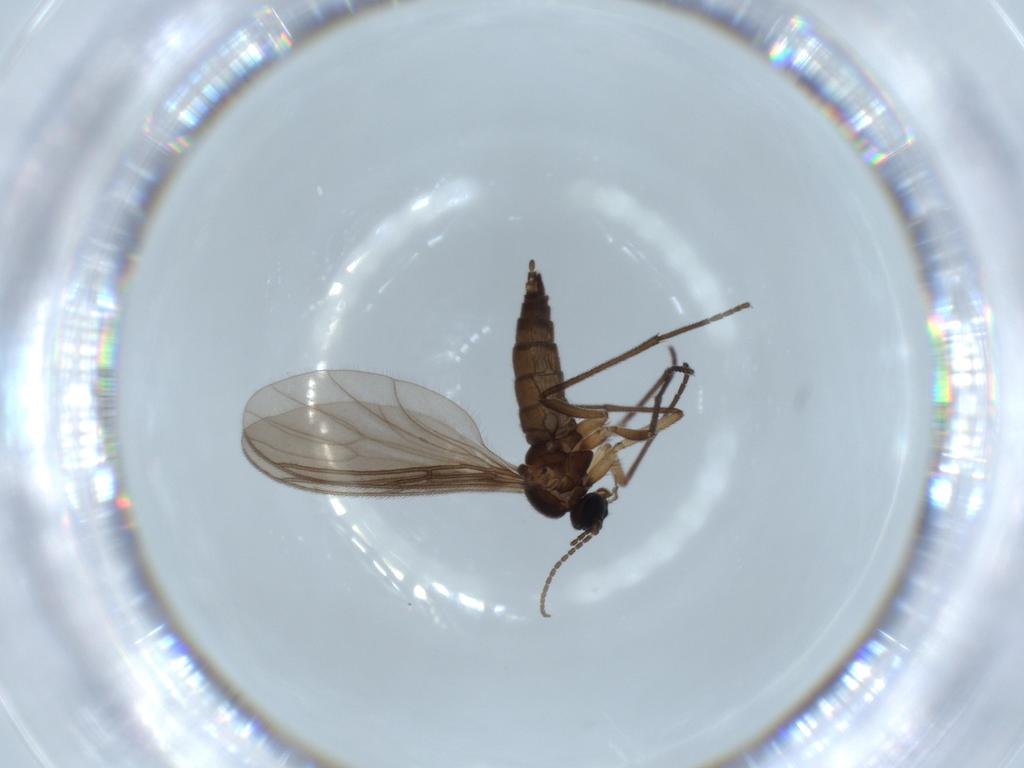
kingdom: Animalia
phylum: Arthropoda
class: Insecta
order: Diptera
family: Sciaridae
